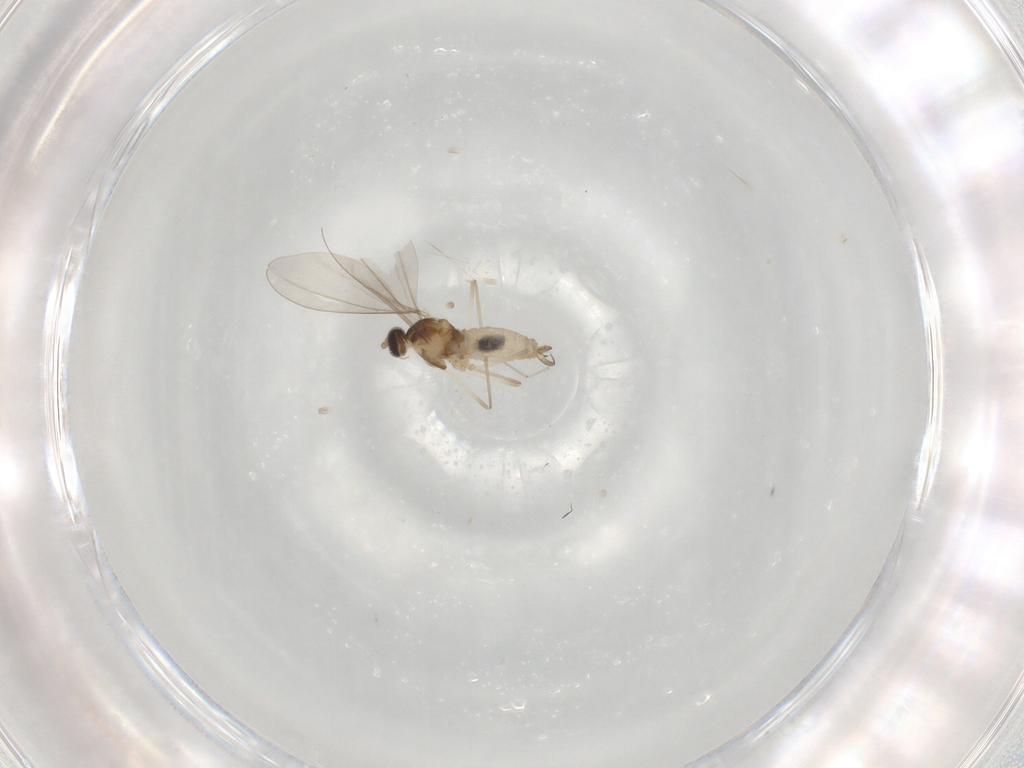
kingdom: Animalia
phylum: Arthropoda
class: Insecta
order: Diptera
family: Cecidomyiidae
